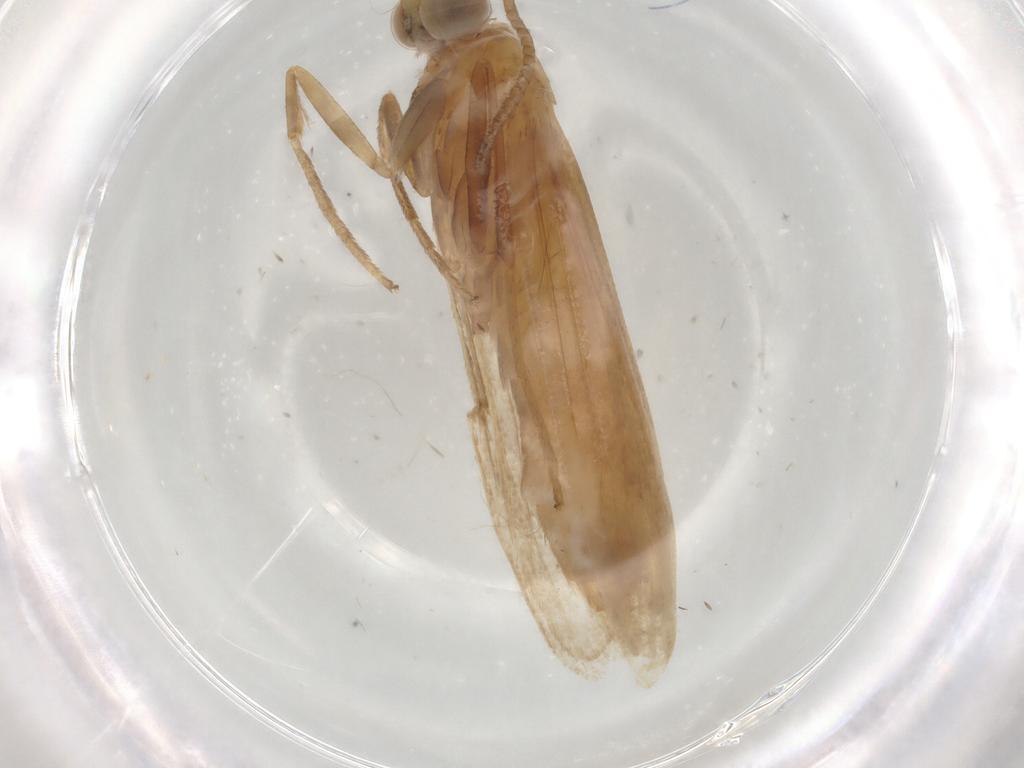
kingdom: Animalia
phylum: Arthropoda
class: Insecta
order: Lepidoptera
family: Pyralidae
